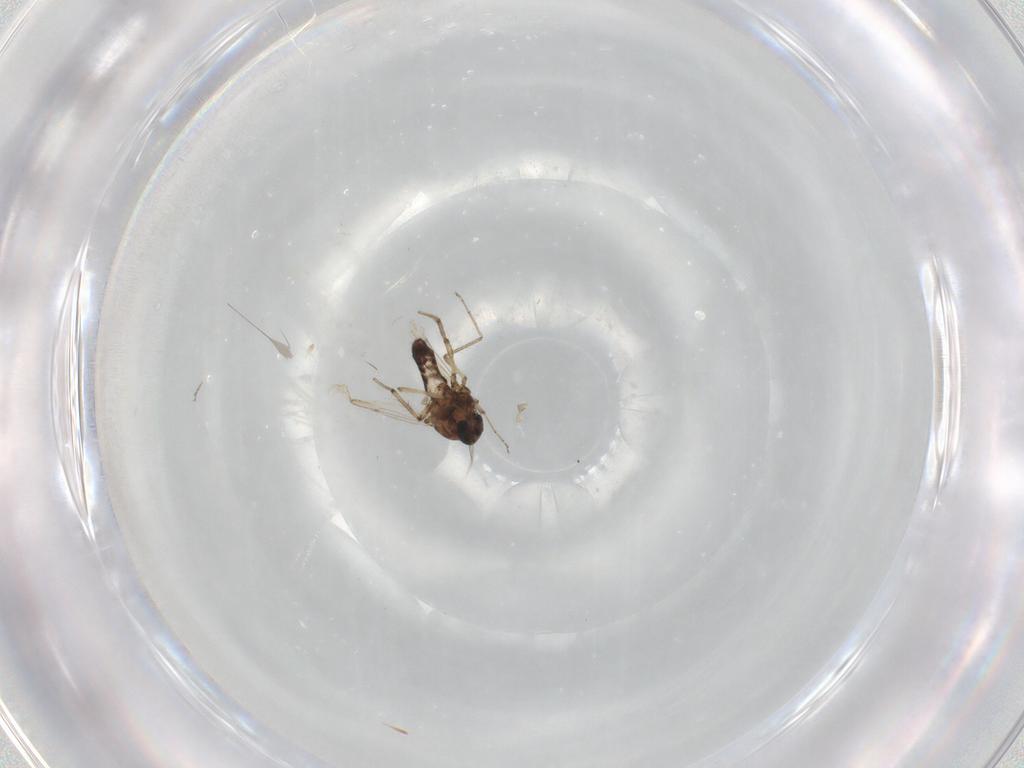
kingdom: Animalia
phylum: Arthropoda
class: Insecta
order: Diptera
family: Ceratopogonidae
